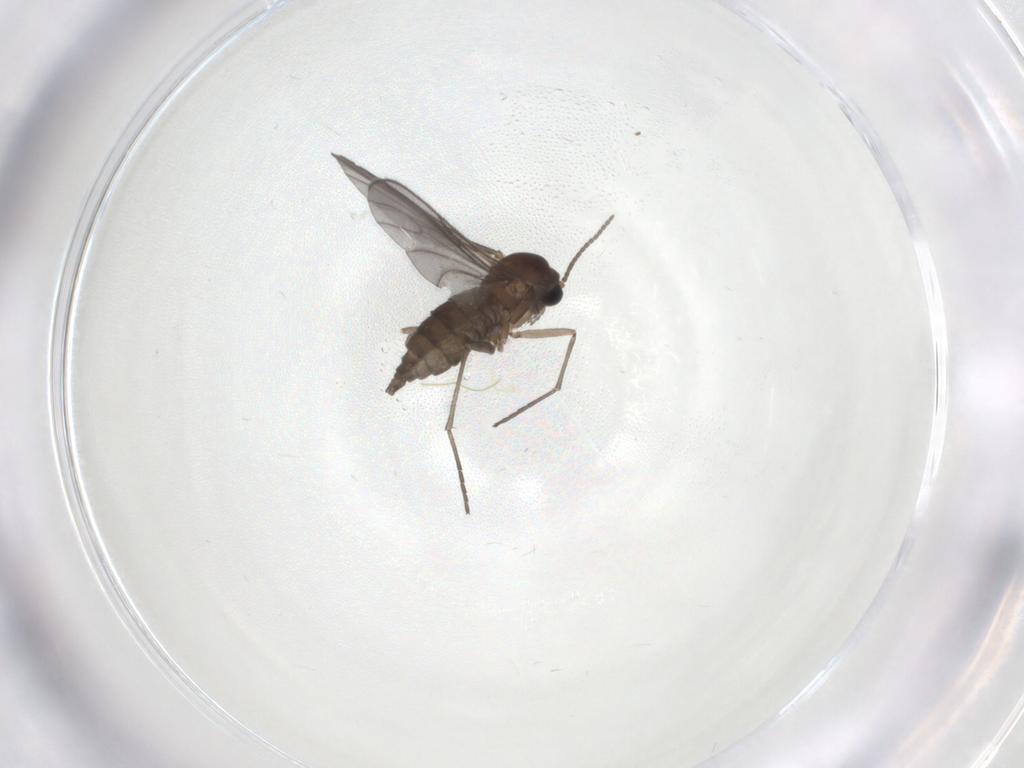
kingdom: Animalia
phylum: Arthropoda
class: Insecta
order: Diptera
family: Sciaridae
